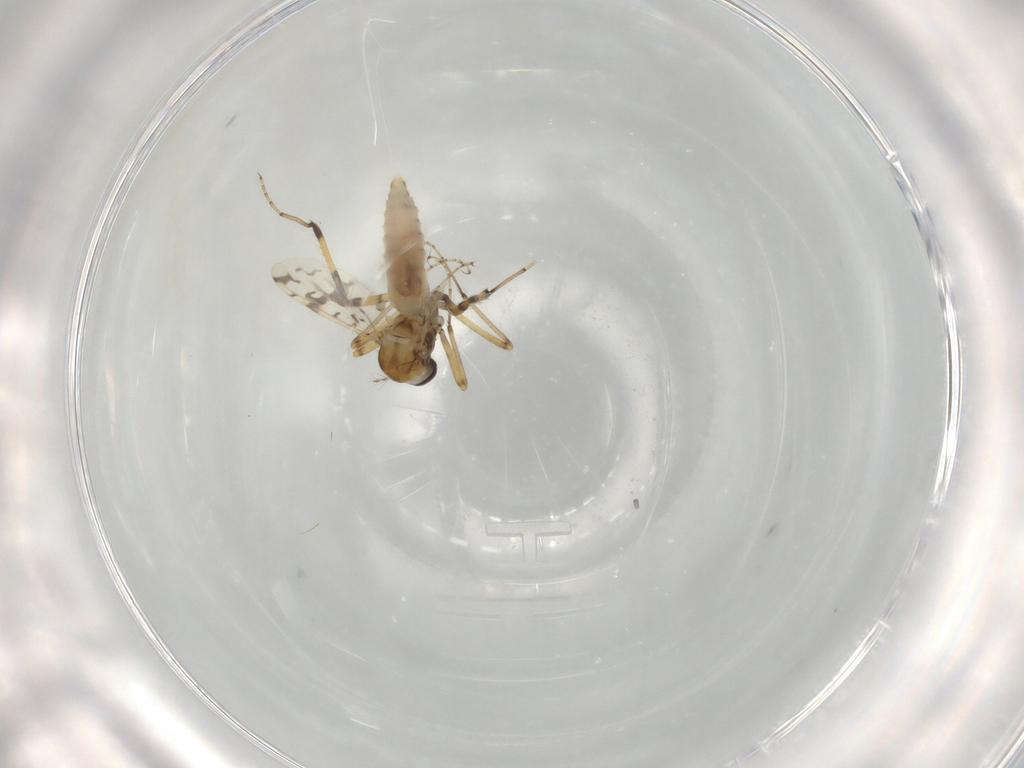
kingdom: Animalia
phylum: Arthropoda
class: Insecta
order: Diptera
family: Ceratopogonidae
